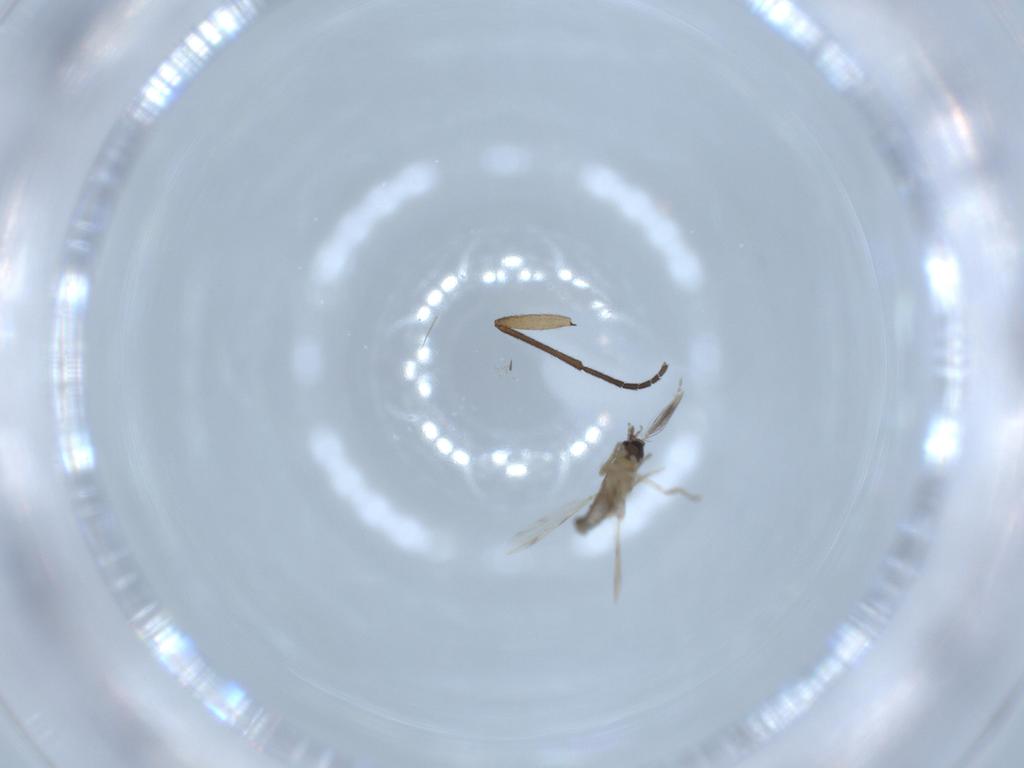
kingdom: Animalia
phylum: Arthropoda
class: Insecta
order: Diptera
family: Ceratopogonidae
